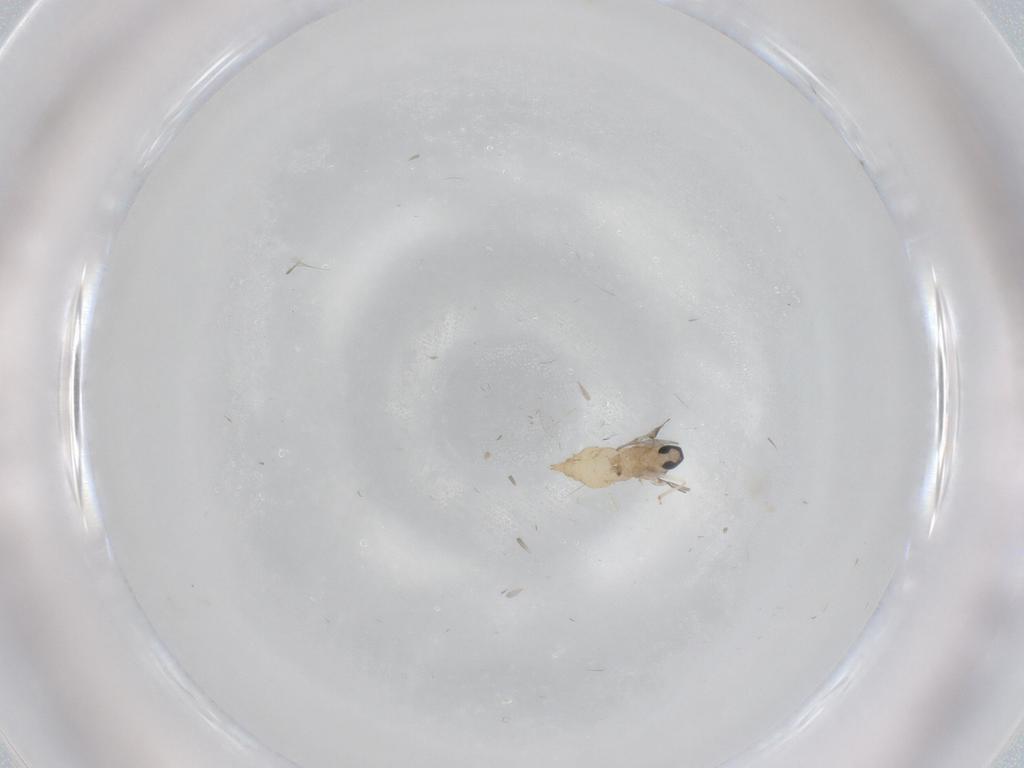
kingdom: Animalia
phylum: Arthropoda
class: Insecta
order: Diptera
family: Cecidomyiidae
